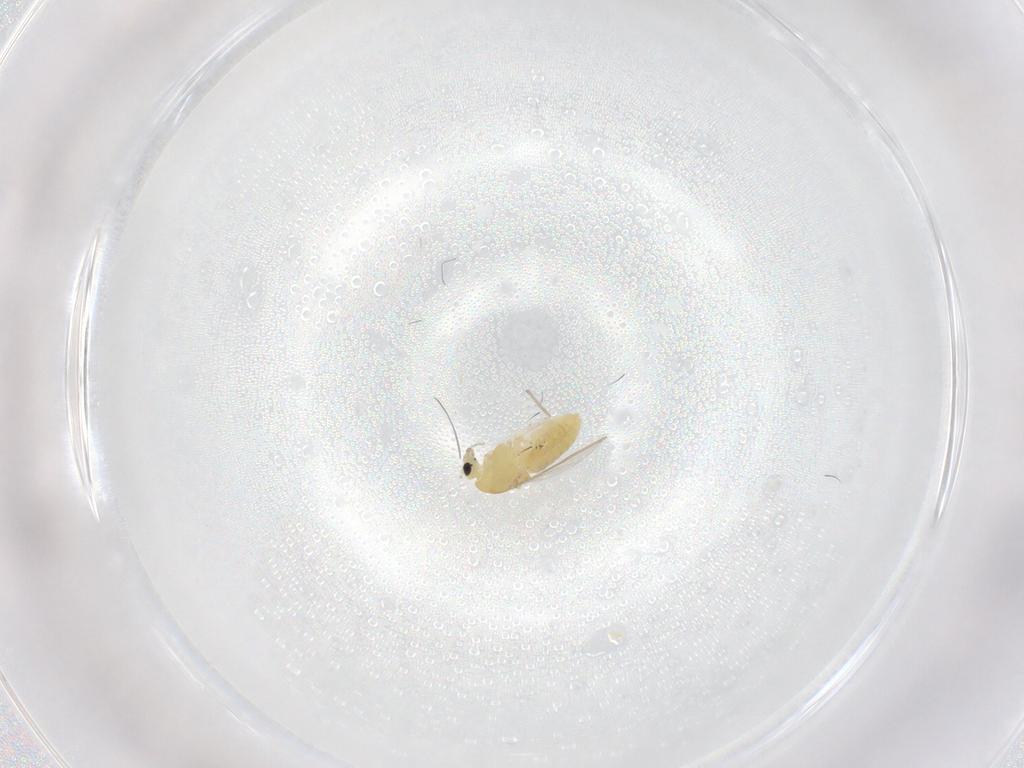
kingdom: Animalia
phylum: Arthropoda
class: Insecta
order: Diptera
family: Chironomidae
